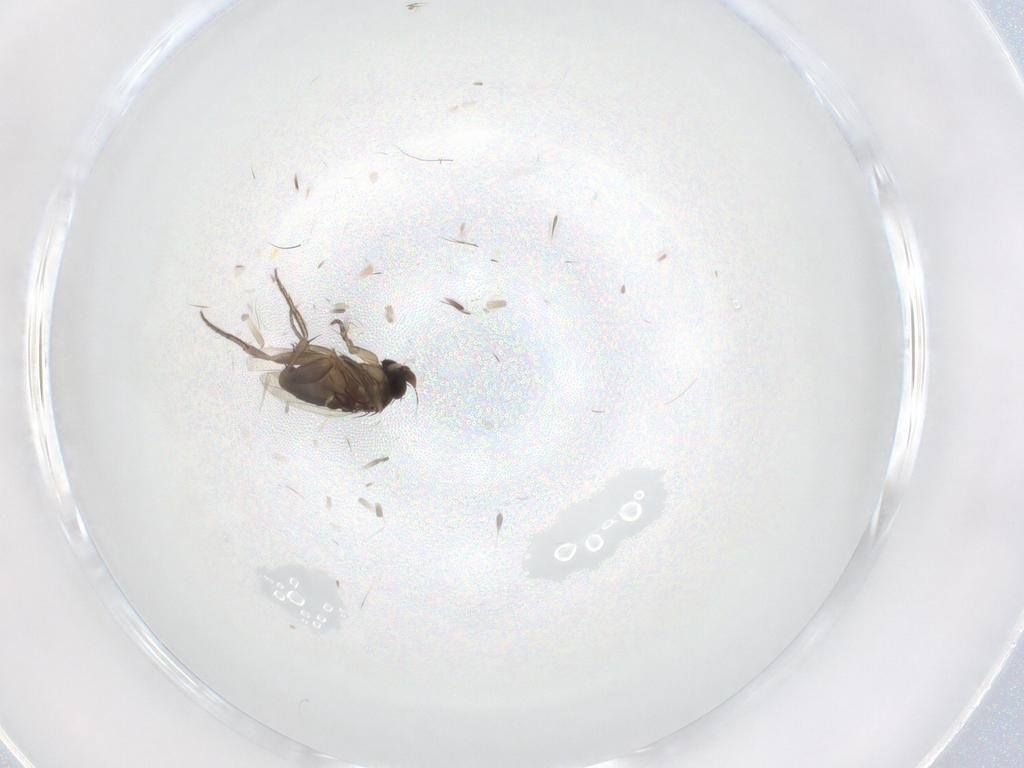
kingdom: Animalia
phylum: Arthropoda
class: Insecta
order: Diptera
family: Phoridae
